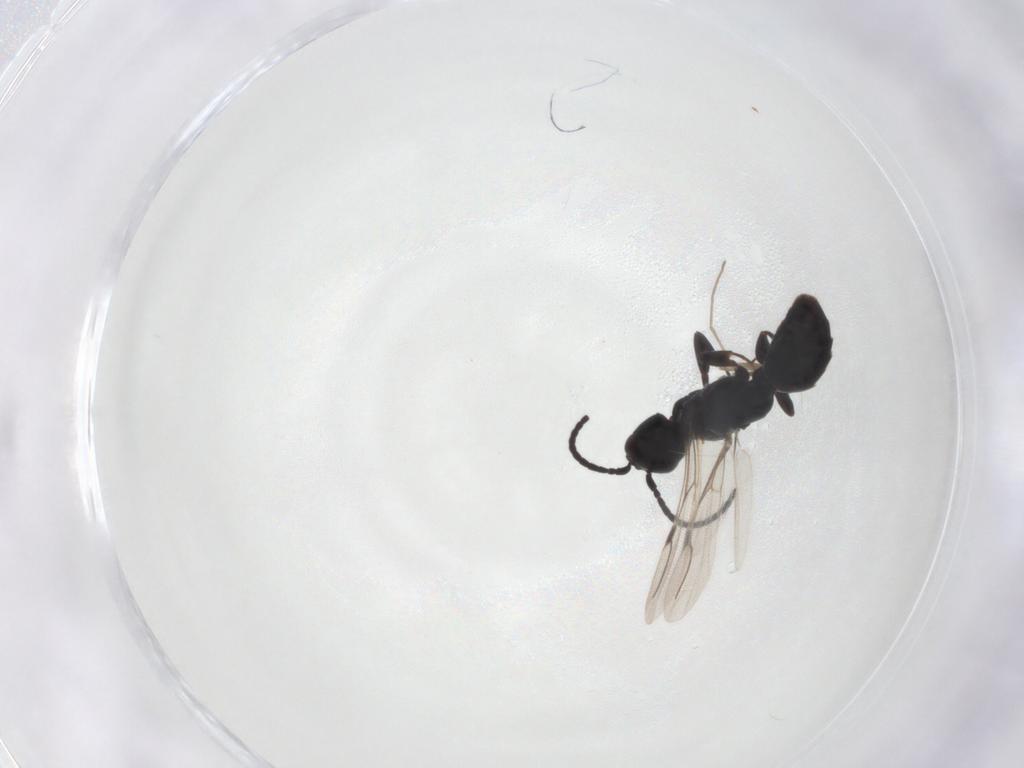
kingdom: Animalia
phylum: Arthropoda
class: Insecta
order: Hymenoptera
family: Bethylidae
